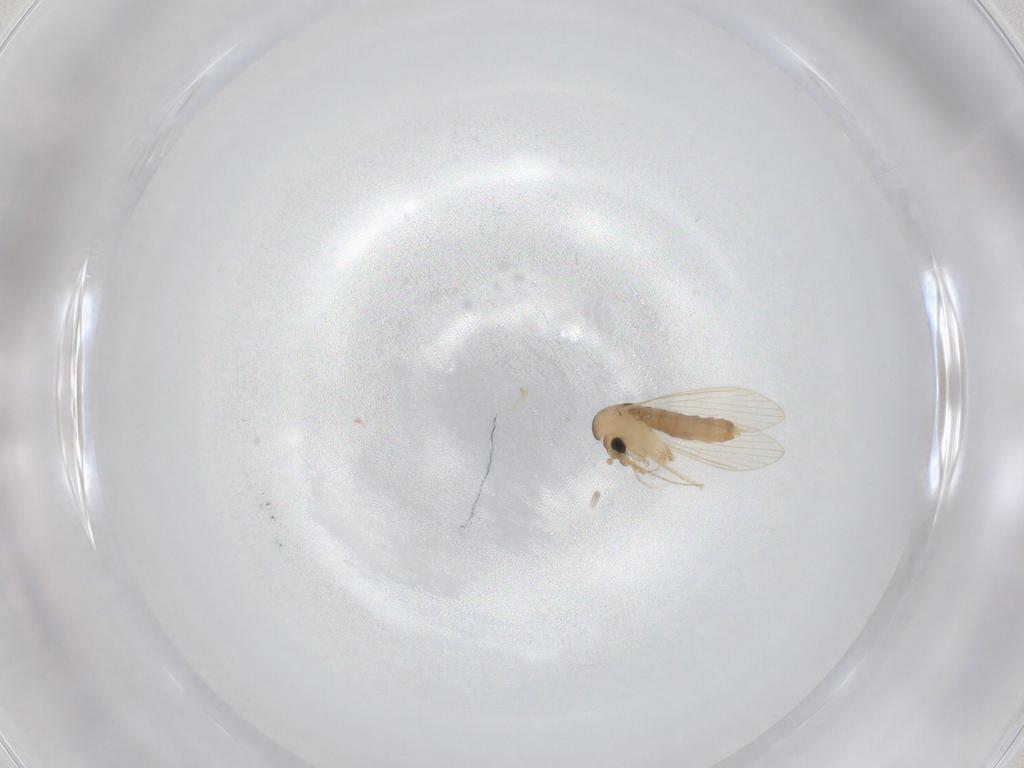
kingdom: Animalia
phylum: Arthropoda
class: Insecta
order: Diptera
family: Psychodidae
